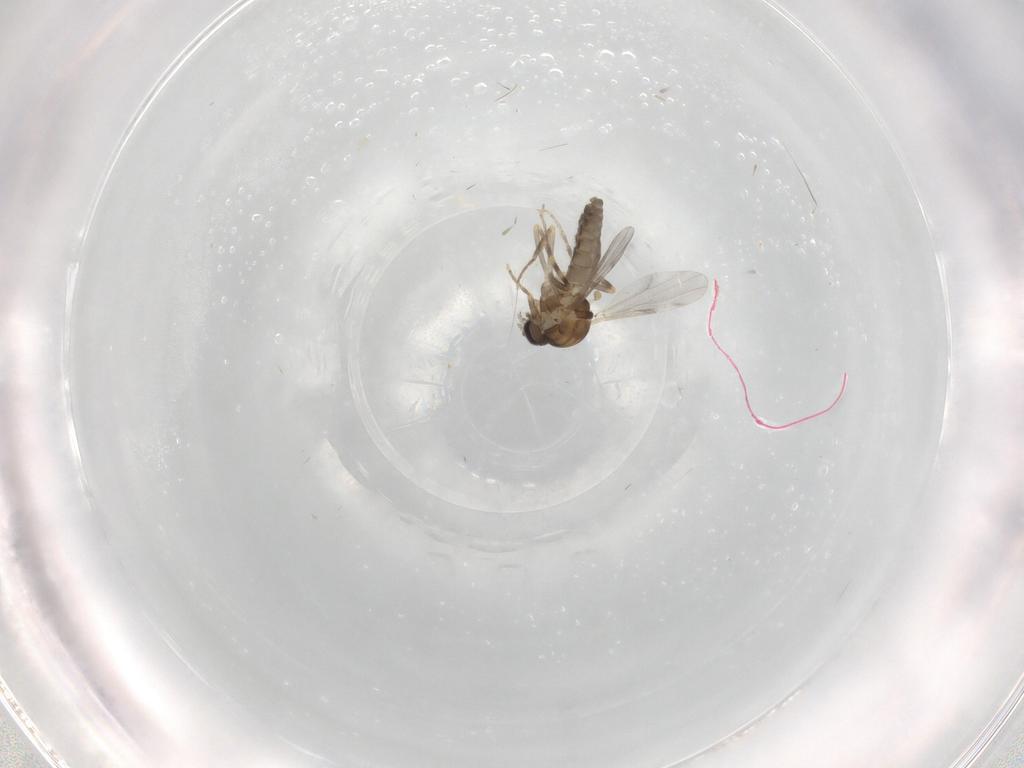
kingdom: Animalia
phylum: Arthropoda
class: Insecta
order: Diptera
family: Ceratopogonidae
